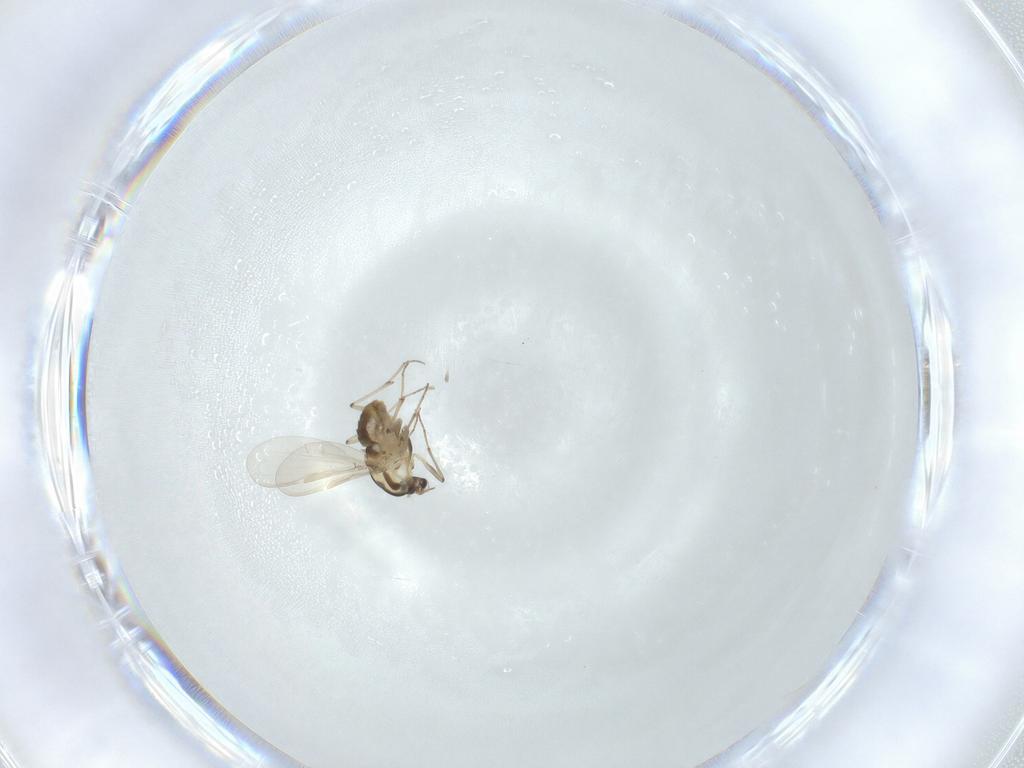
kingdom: Animalia
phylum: Arthropoda
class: Insecta
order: Diptera
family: Chironomidae
